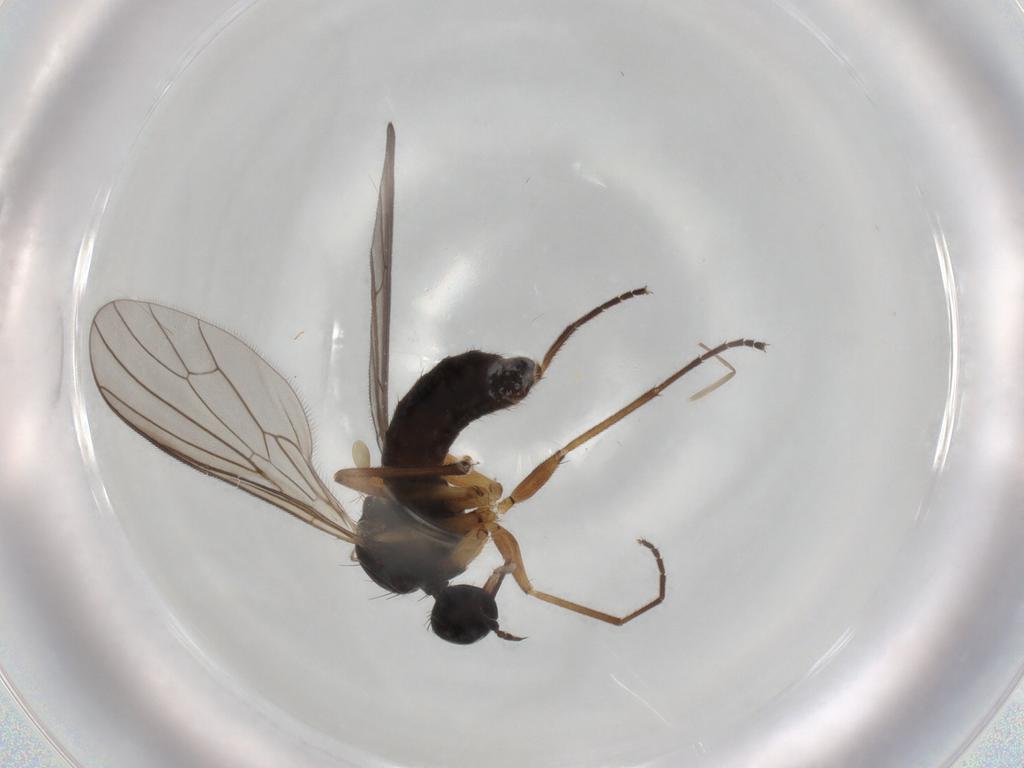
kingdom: Animalia
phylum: Arthropoda
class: Insecta
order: Diptera
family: Empididae
